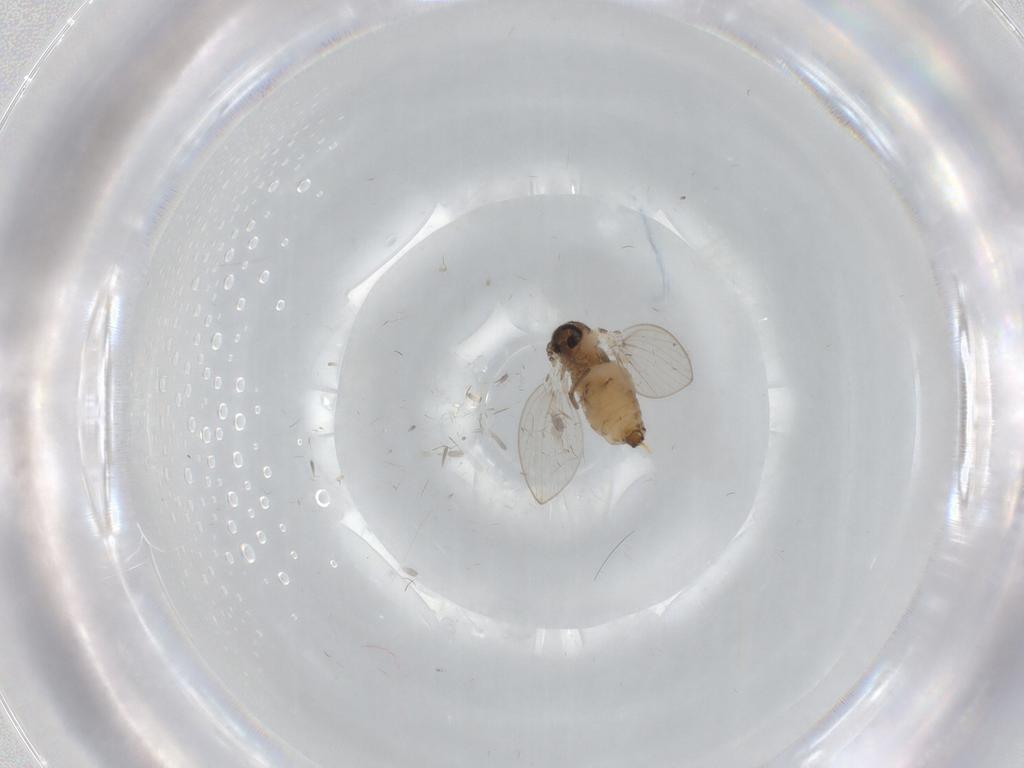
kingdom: Animalia
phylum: Arthropoda
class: Insecta
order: Diptera
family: Psychodidae
